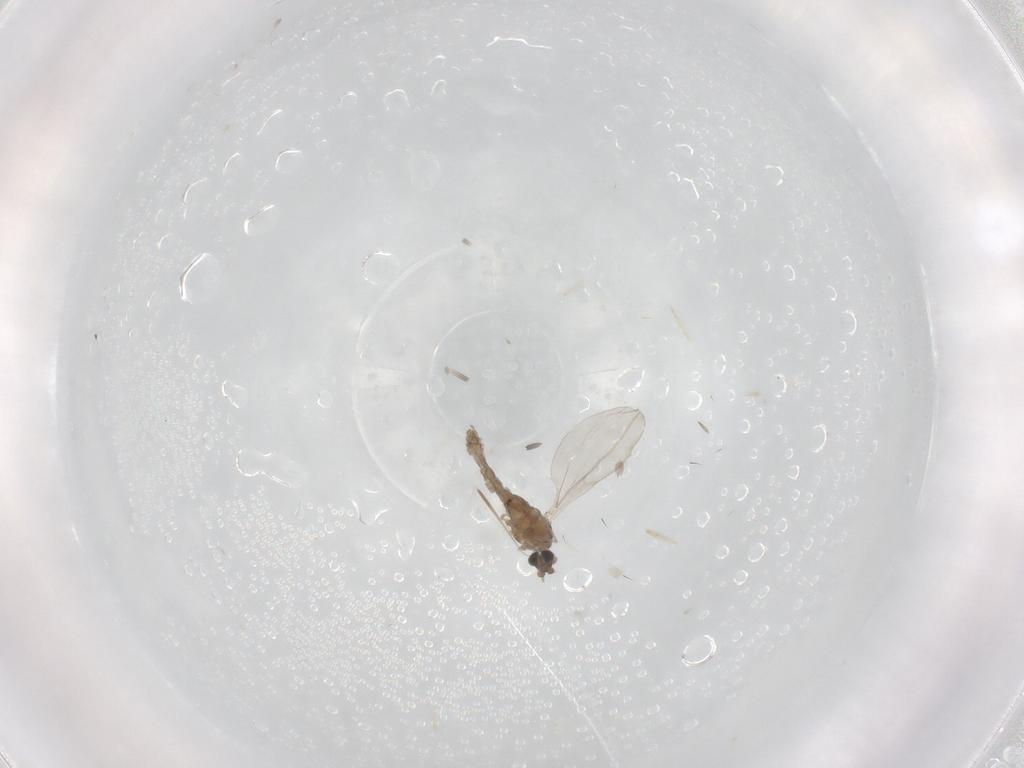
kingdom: Animalia
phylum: Arthropoda
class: Insecta
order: Diptera
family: Cecidomyiidae
